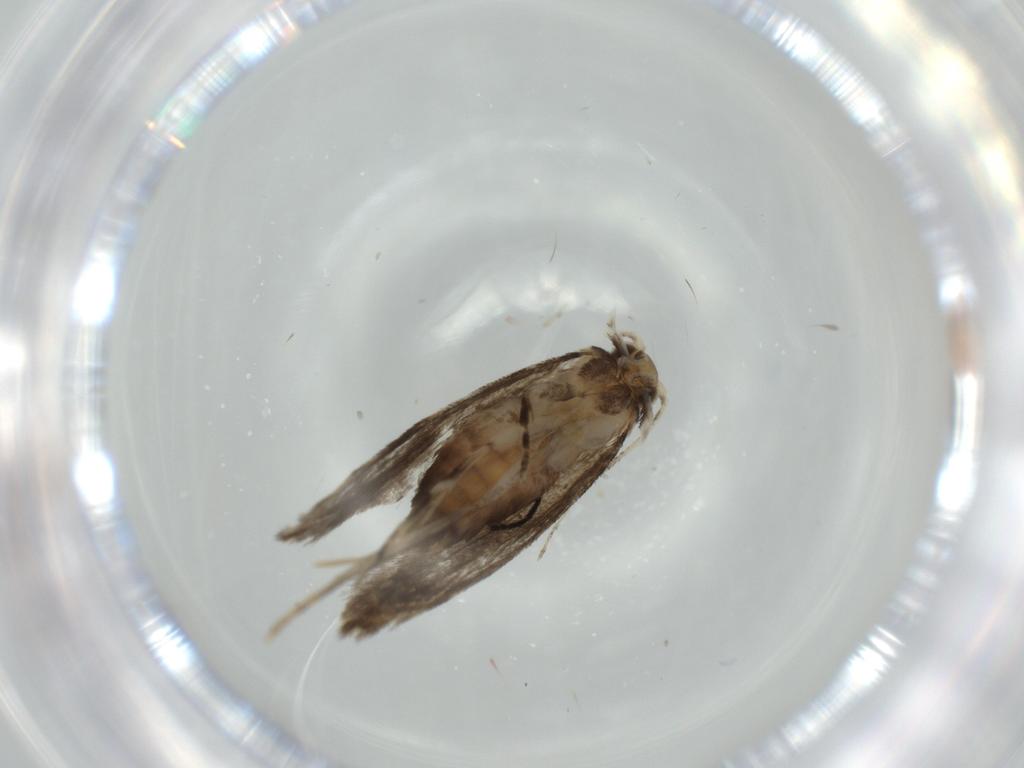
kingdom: Animalia
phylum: Arthropoda
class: Insecta
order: Lepidoptera
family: Tineidae
